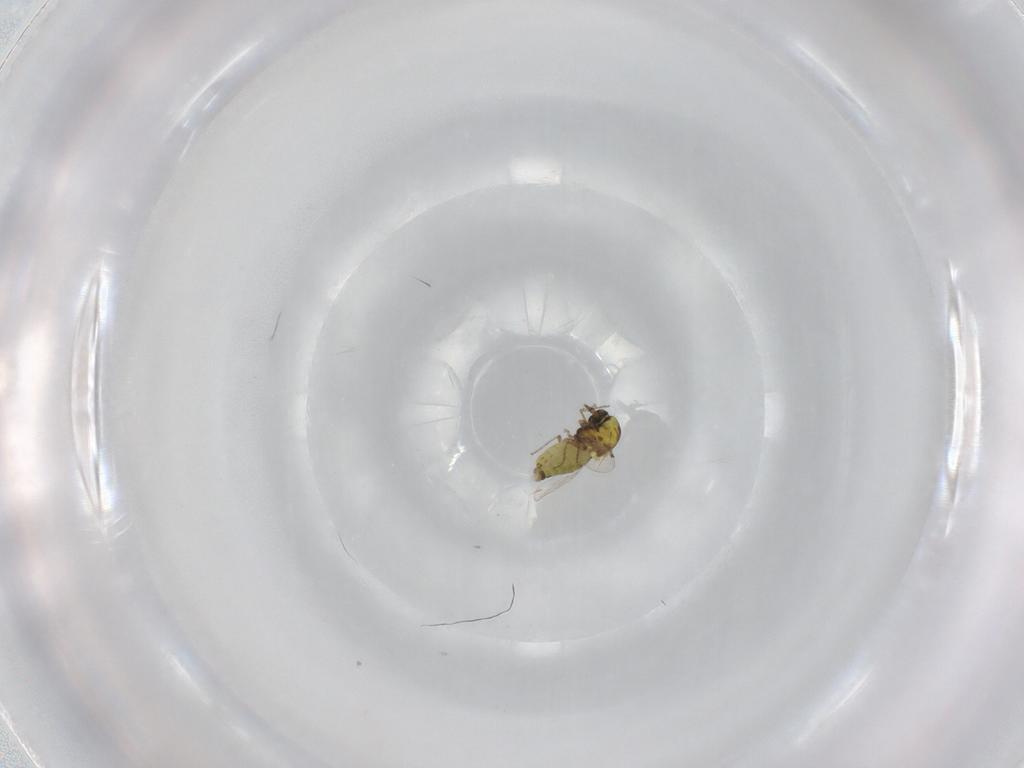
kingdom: Animalia
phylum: Arthropoda
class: Insecta
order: Diptera
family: Ceratopogonidae
